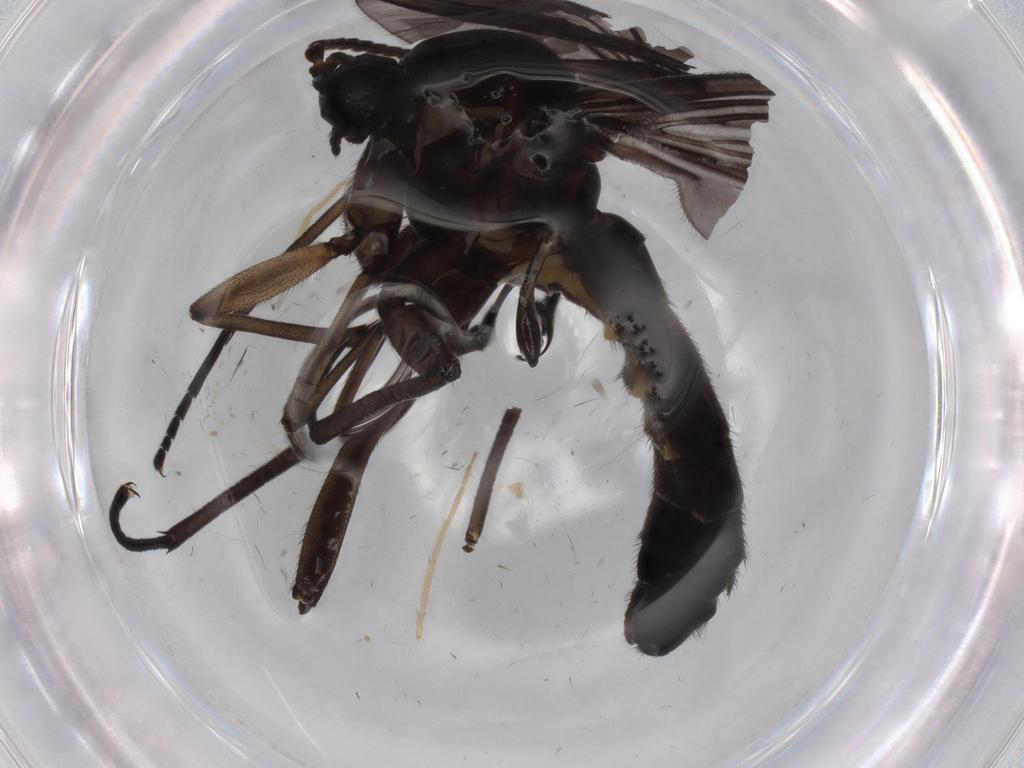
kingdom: Animalia
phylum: Arthropoda
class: Insecta
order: Diptera
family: Sciaridae
